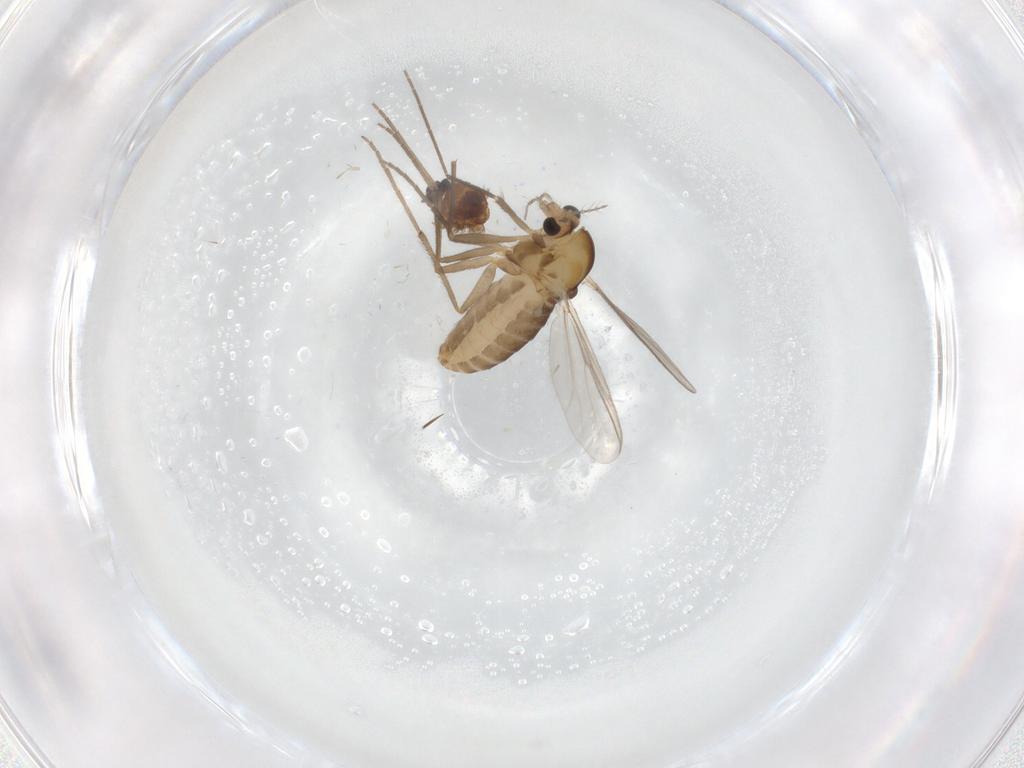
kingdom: Animalia
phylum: Arthropoda
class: Insecta
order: Diptera
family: Chironomidae
